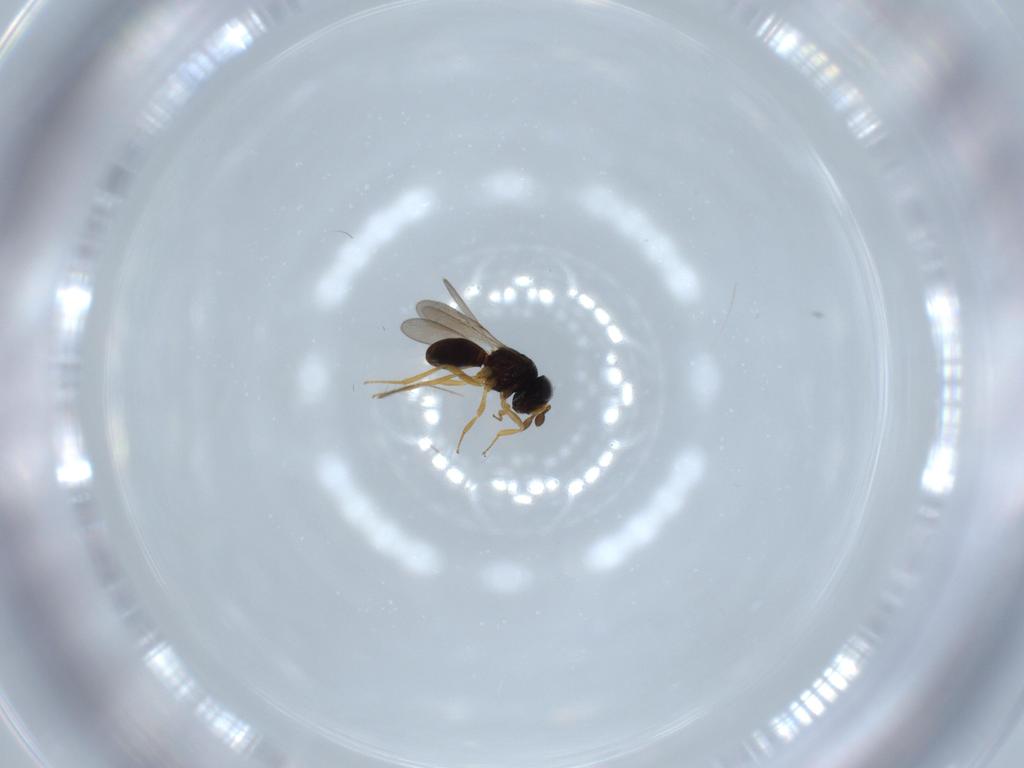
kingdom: Animalia
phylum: Arthropoda
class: Insecta
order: Hymenoptera
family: Scelionidae
